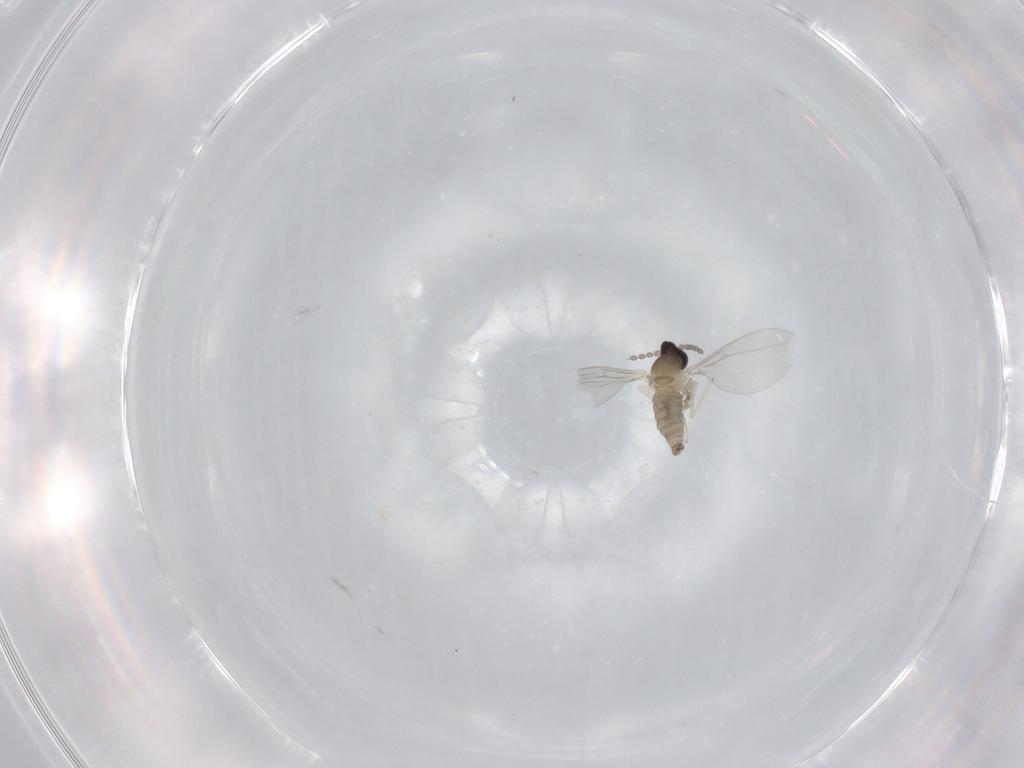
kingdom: Animalia
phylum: Arthropoda
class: Insecta
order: Diptera
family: Cecidomyiidae
